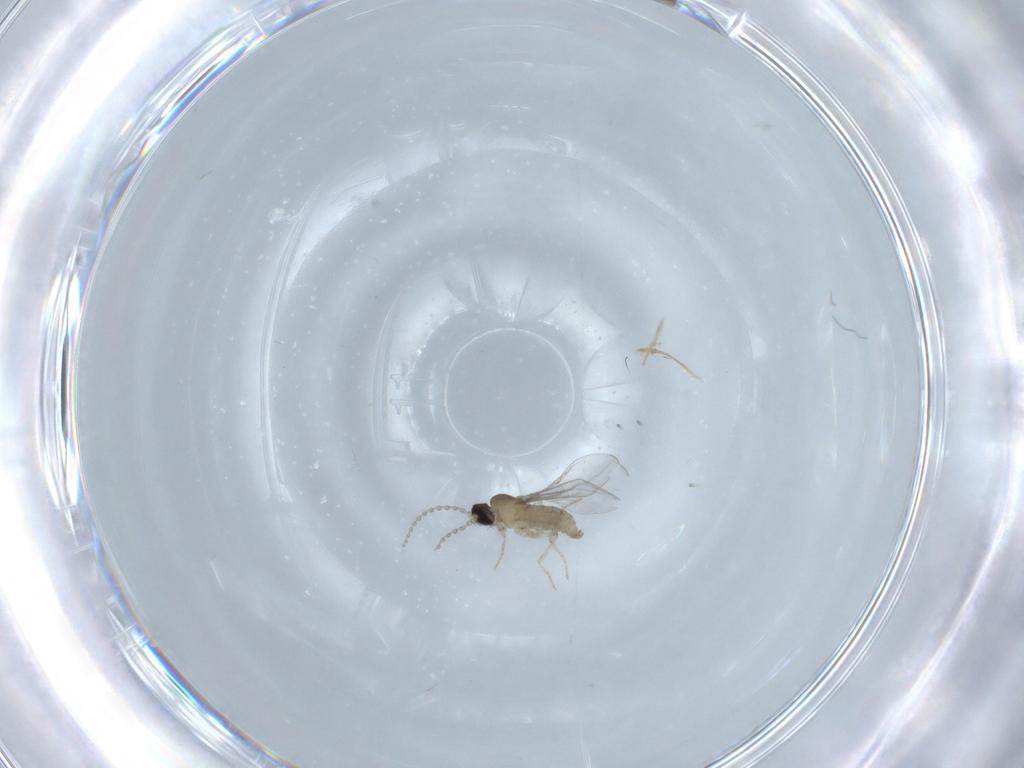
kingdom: Animalia
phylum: Arthropoda
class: Insecta
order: Diptera
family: Cecidomyiidae
